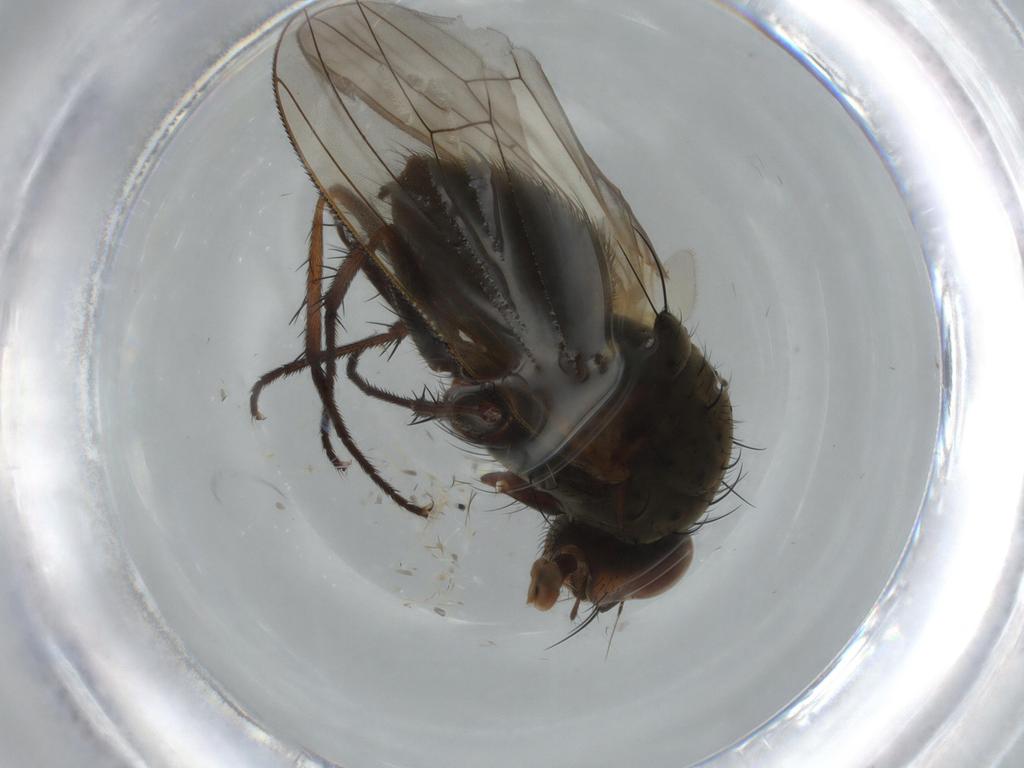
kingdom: Animalia
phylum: Arthropoda
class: Insecta
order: Diptera
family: Anthomyiidae
